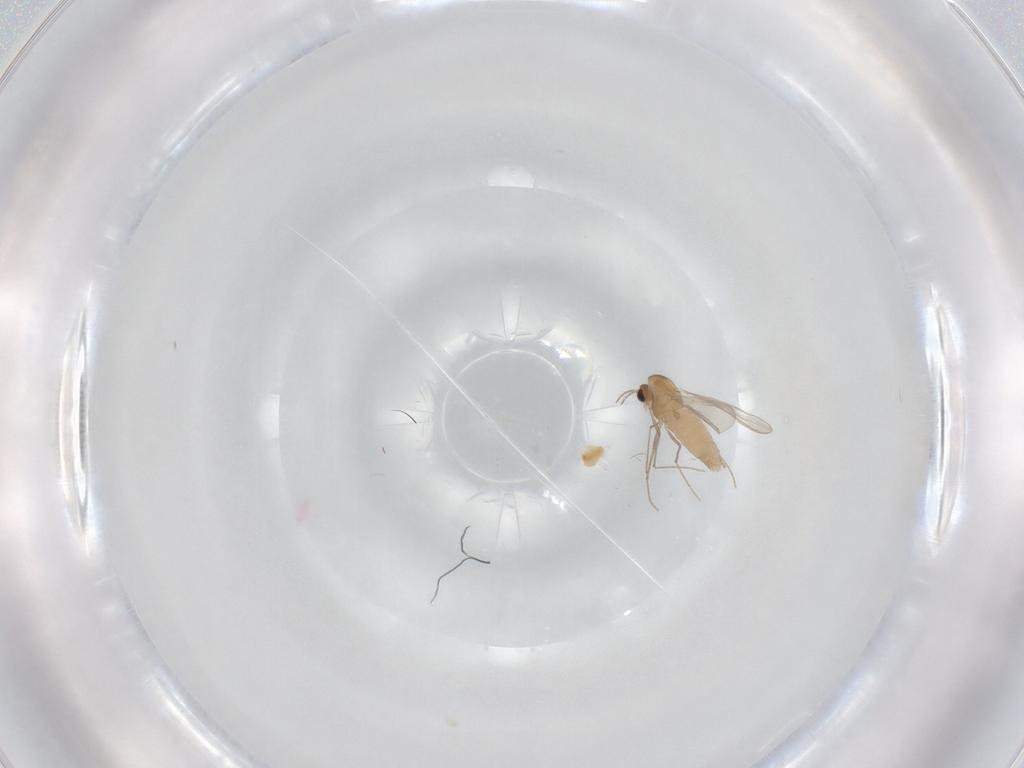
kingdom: Animalia
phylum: Arthropoda
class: Insecta
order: Diptera
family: Chironomidae
